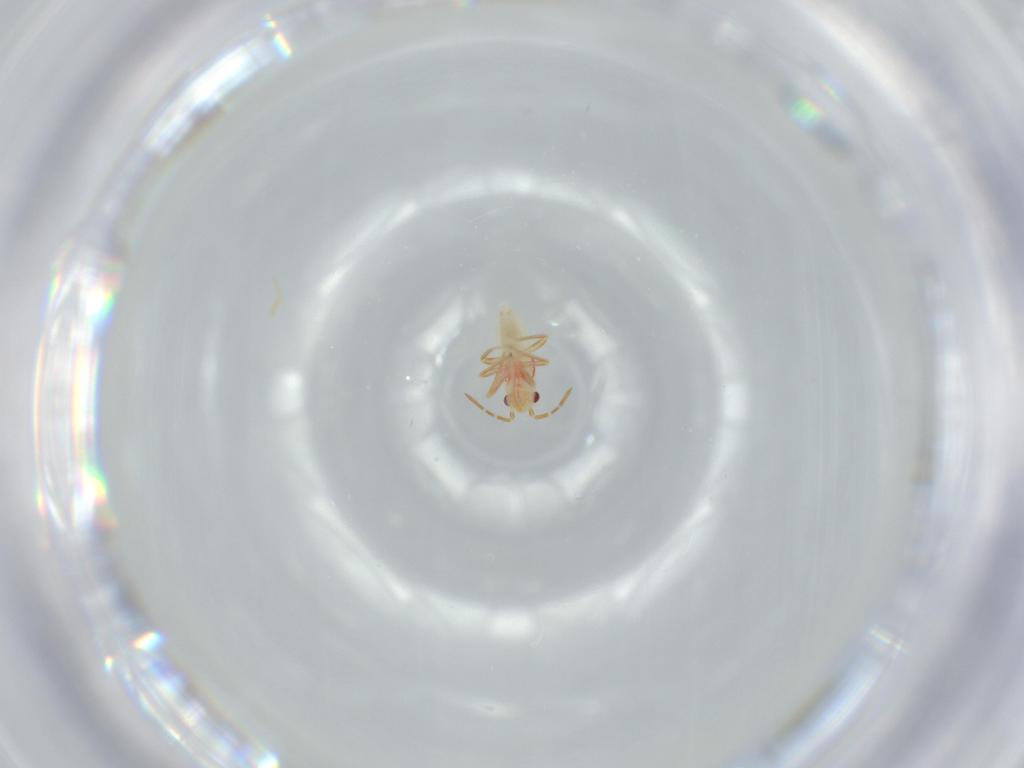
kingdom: Animalia
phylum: Arthropoda
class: Insecta
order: Hemiptera
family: Miridae
